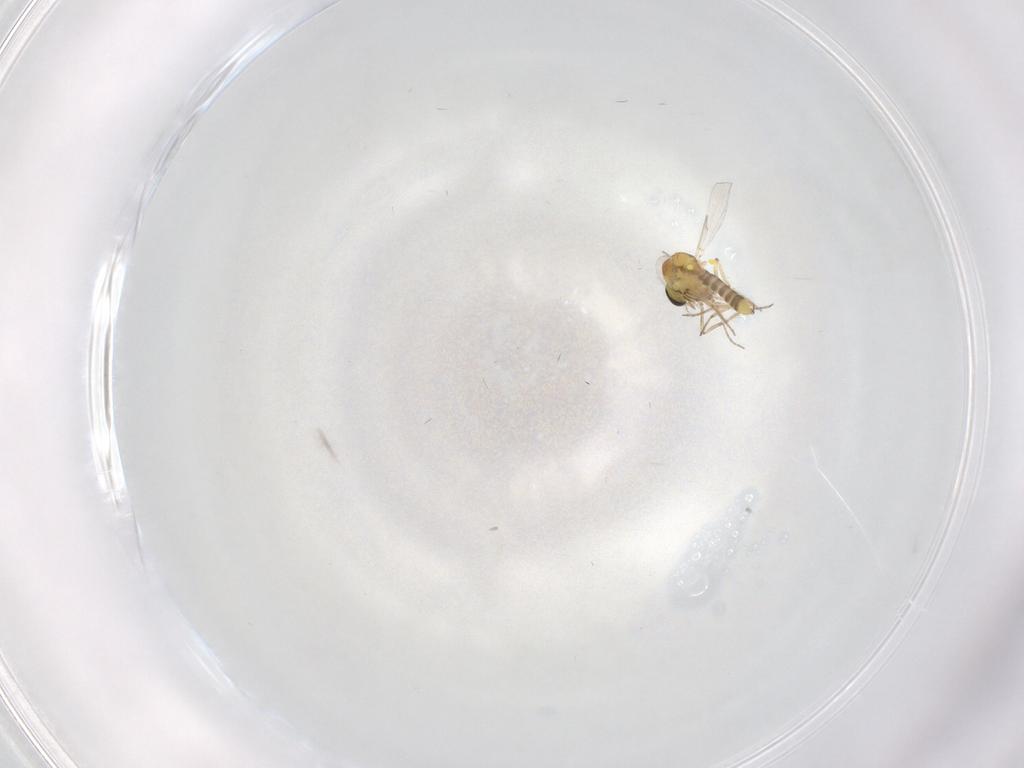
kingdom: Animalia
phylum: Arthropoda
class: Insecta
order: Diptera
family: Ceratopogonidae
